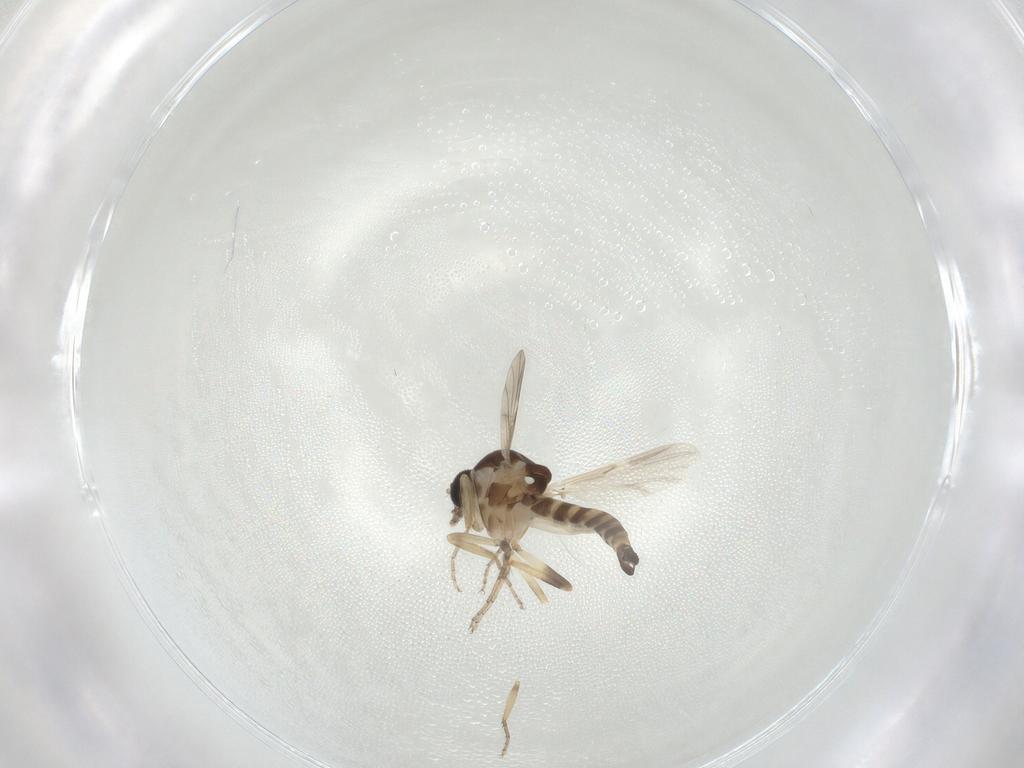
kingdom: Animalia
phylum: Arthropoda
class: Insecta
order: Diptera
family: Ceratopogonidae
